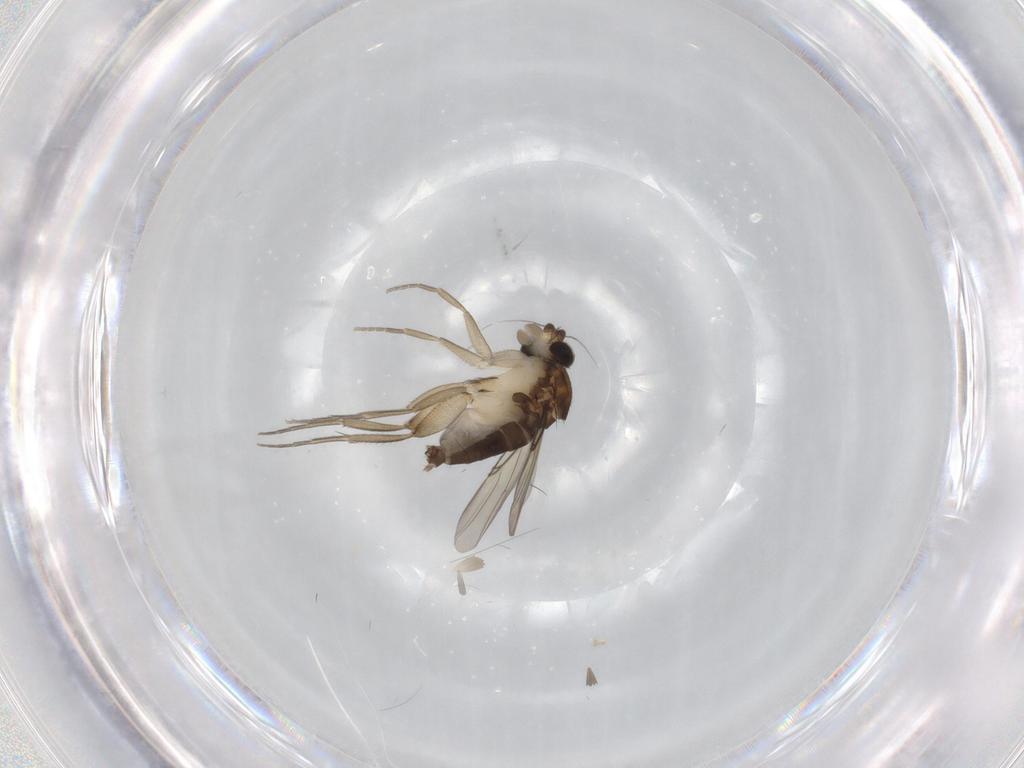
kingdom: Animalia
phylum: Arthropoda
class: Insecta
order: Diptera
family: Phoridae
